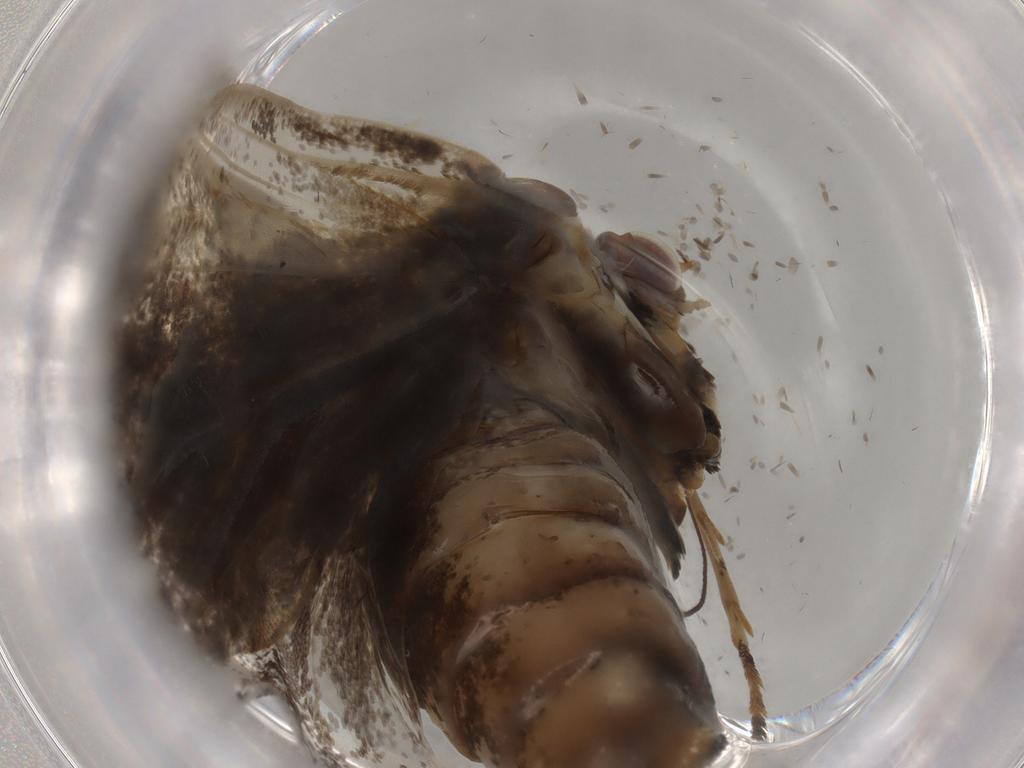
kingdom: Animalia
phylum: Arthropoda
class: Insecta
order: Lepidoptera
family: Choreutidae
